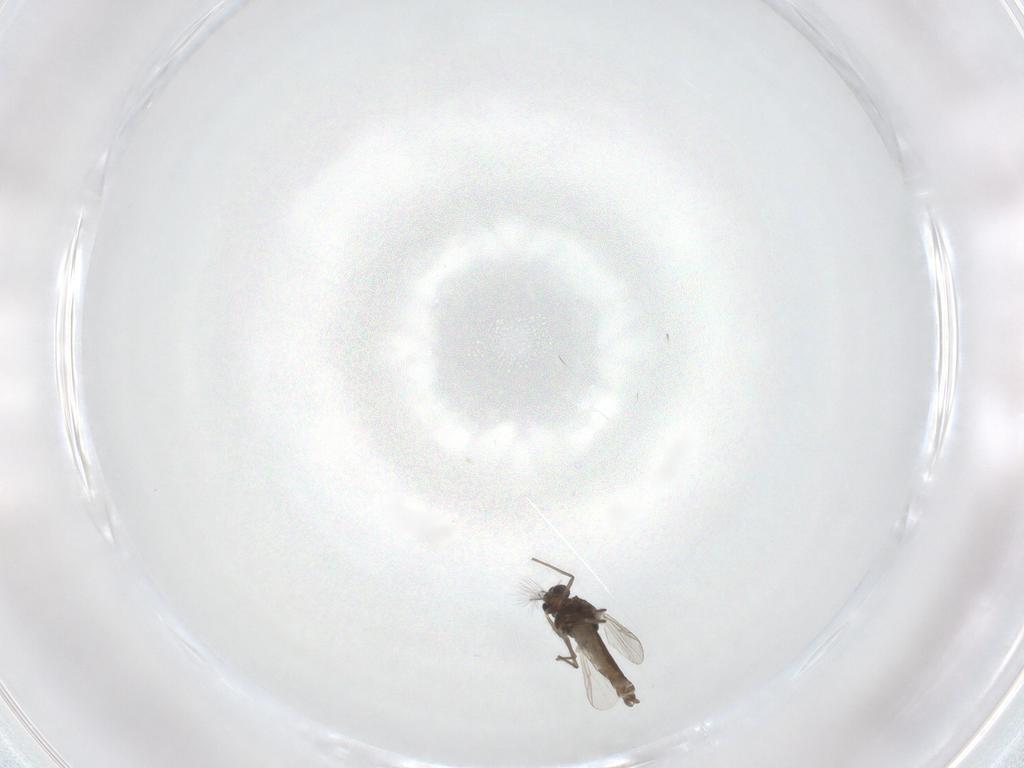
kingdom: Animalia
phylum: Arthropoda
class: Insecta
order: Diptera
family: Chironomidae
